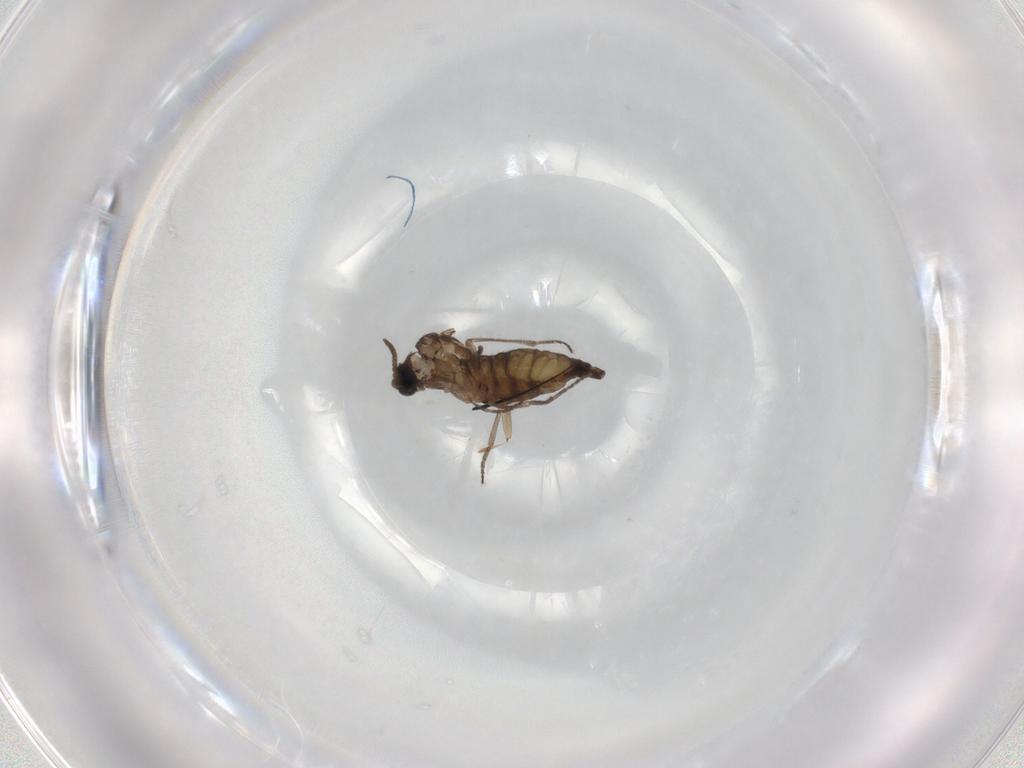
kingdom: Animalia
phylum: Arthropoda
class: Insecta
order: Diptera
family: Sciaridae
